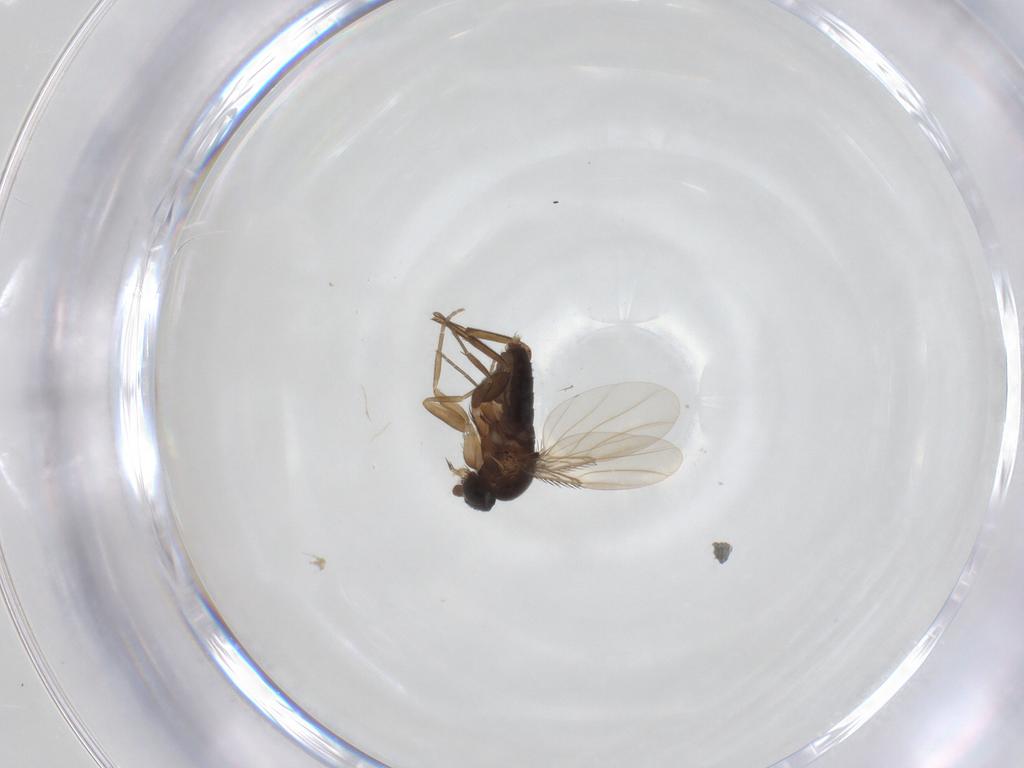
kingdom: Animalia
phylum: Arthropoda
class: Insecta
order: Diptera
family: Phoridae
